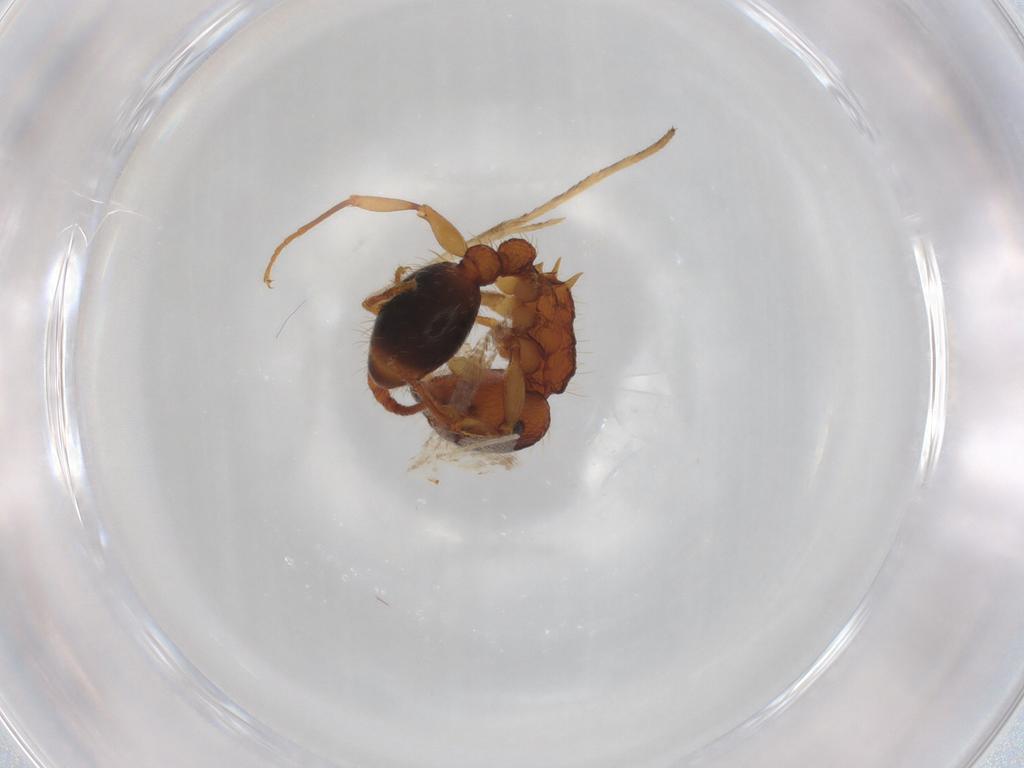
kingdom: Animalia
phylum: Arthropoda
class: Insecta
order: Hymenoptera
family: Formicidae
